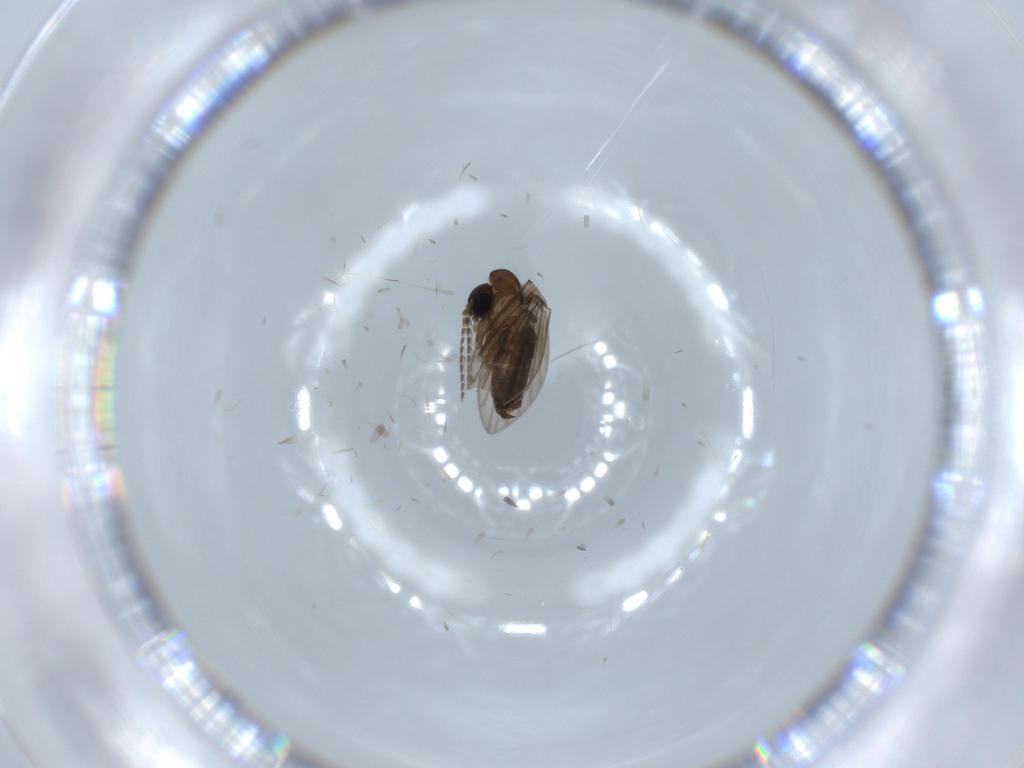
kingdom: Animalia
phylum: Arthropoda
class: Insecta
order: Diptera
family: Psychodidae
